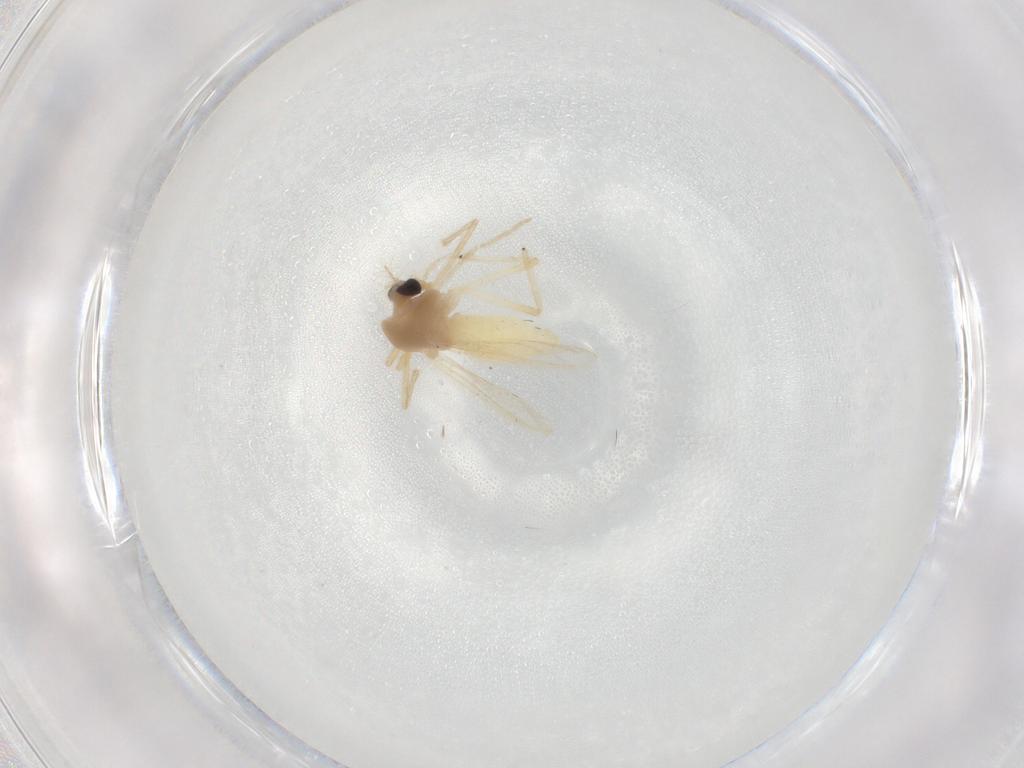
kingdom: Animalia
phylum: Arthropoda
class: Insecta
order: Diptera
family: Chironomidae
